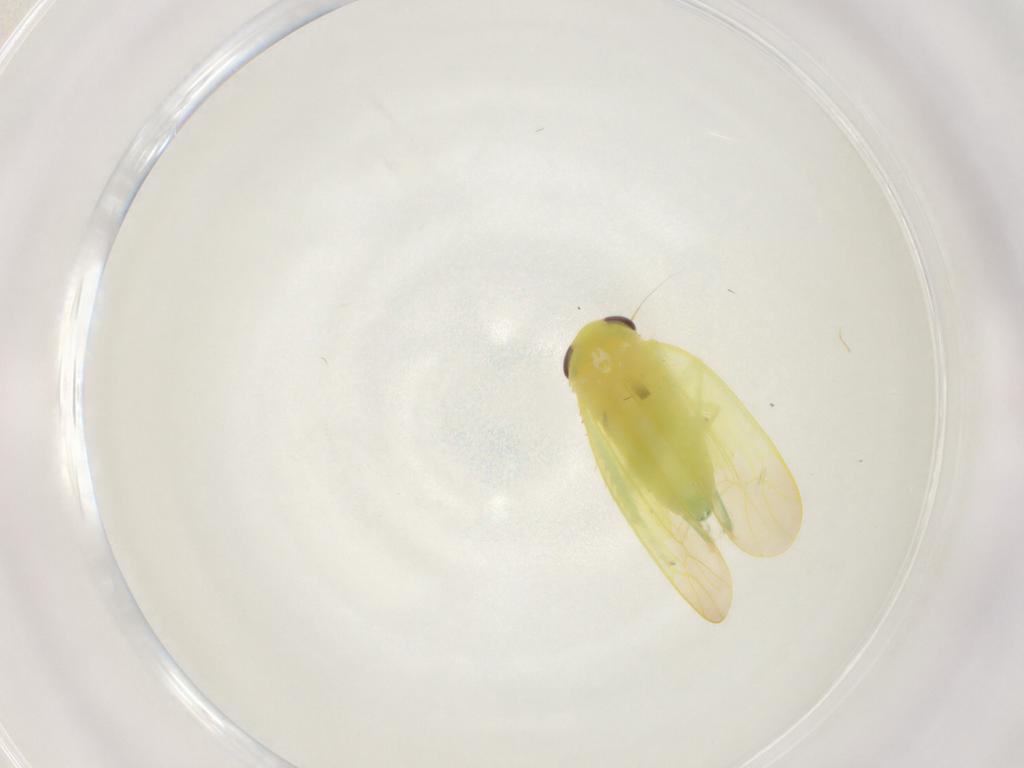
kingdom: Animalia
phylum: Arthropoda
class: Insecta
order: Hemiptera
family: Cicadellidae
